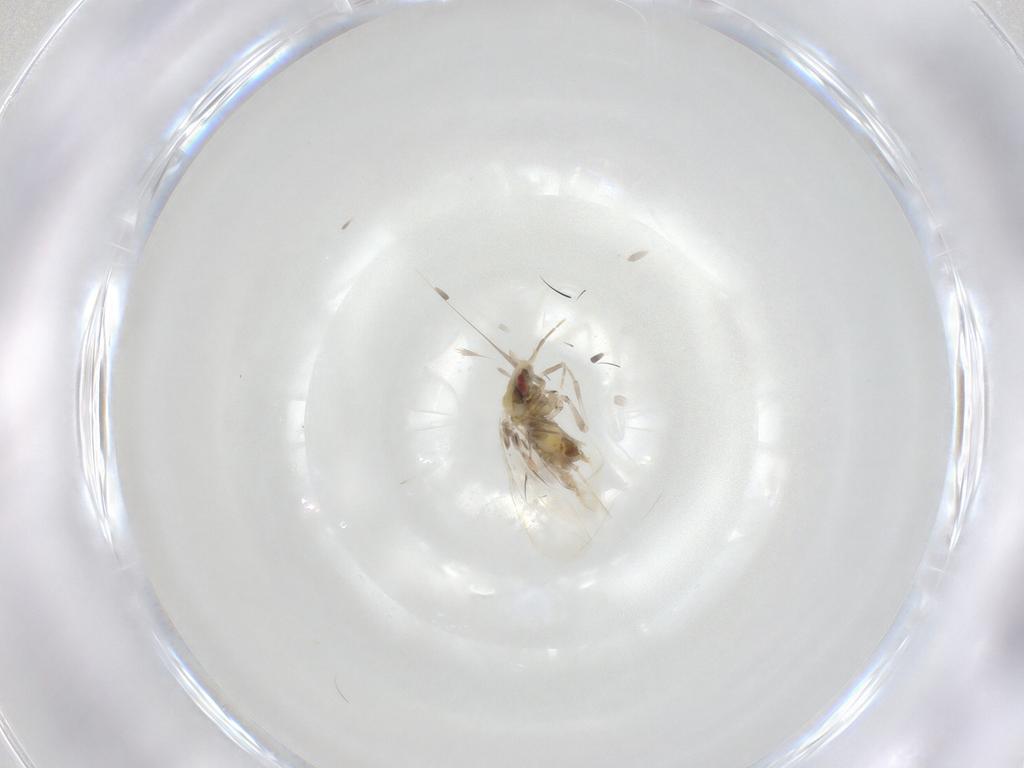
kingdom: Animalia
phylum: Arthropoda
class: Insecta
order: Hemiptera
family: Aleyrodidae
